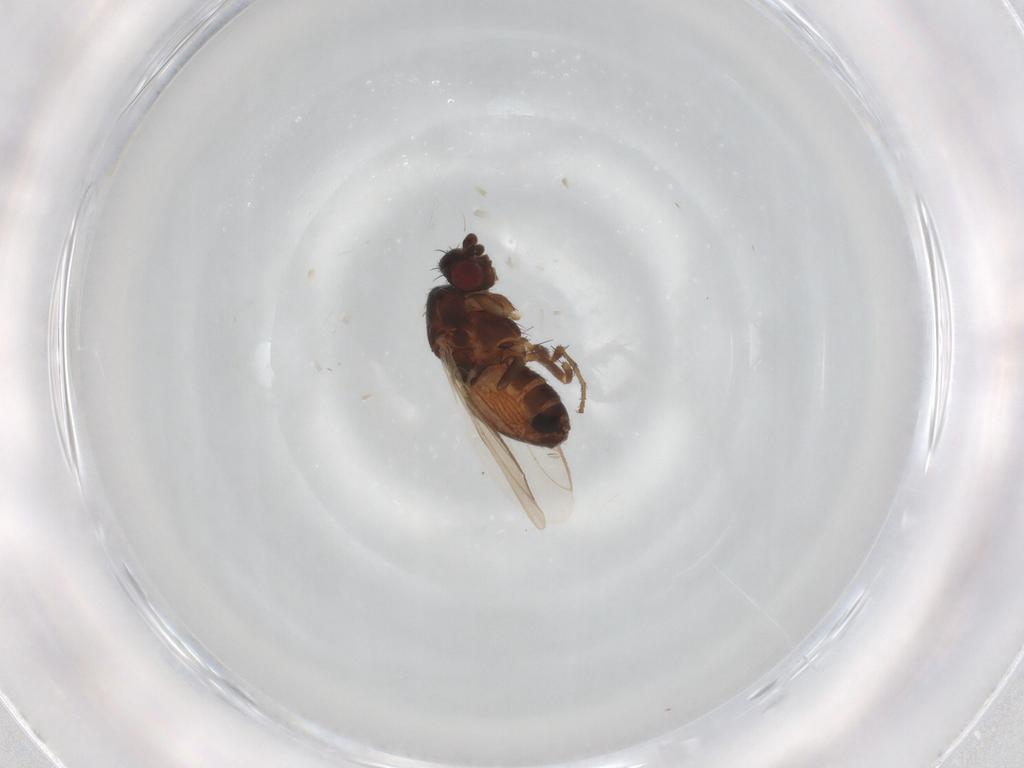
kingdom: Animalia
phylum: Arthropoda
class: Insecta
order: Diptera
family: Sphaeroceridae
